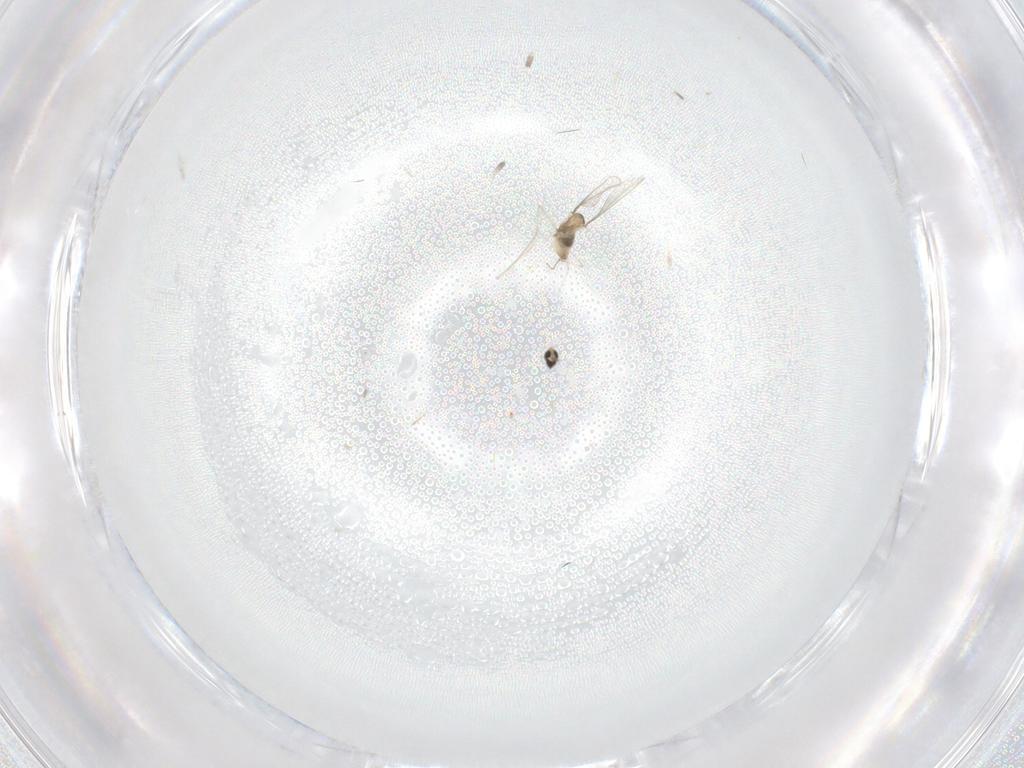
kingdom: Animalia
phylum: Arthropoda
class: Insecta
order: Diptera
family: Cecidomyiidae
